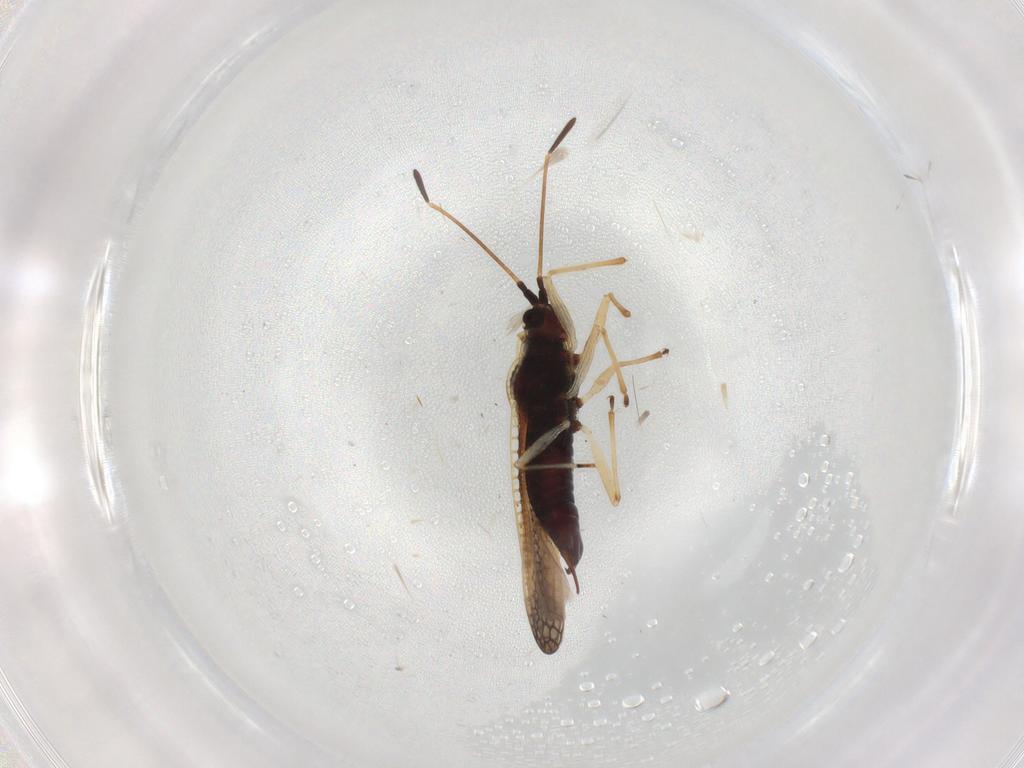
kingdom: Animalia
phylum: Arthropoda
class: Insecta
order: Hemiptera
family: Tingidae
